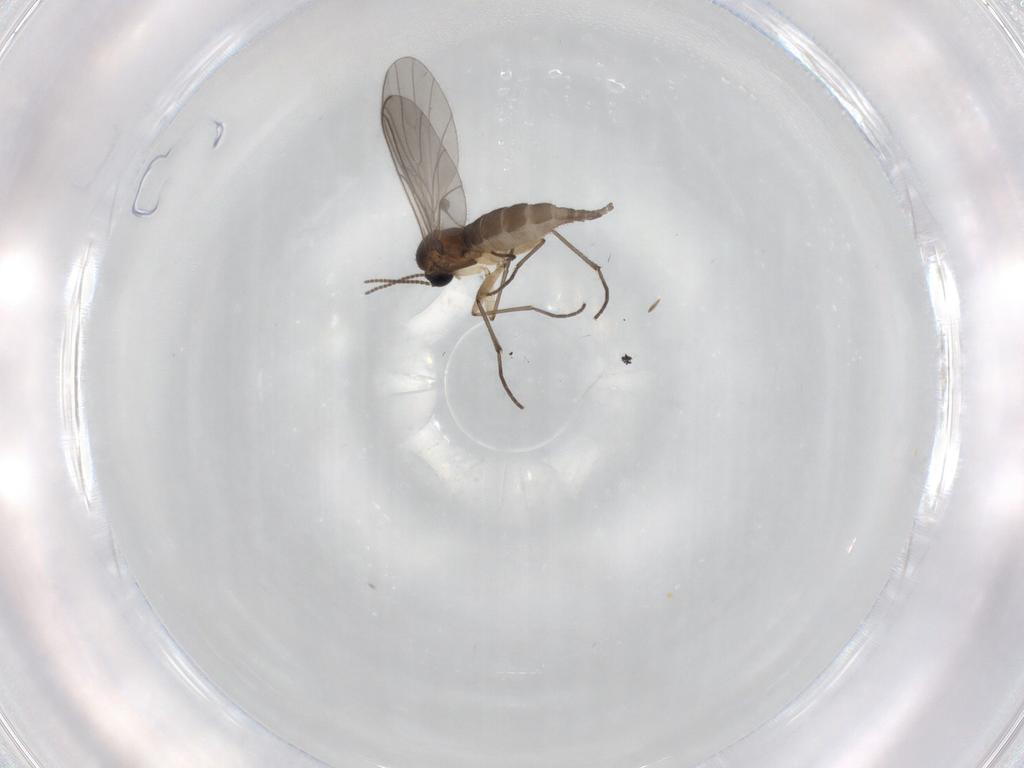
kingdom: Animalia
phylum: Arthropoda
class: Insecta
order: Diptera
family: Sciaridae
